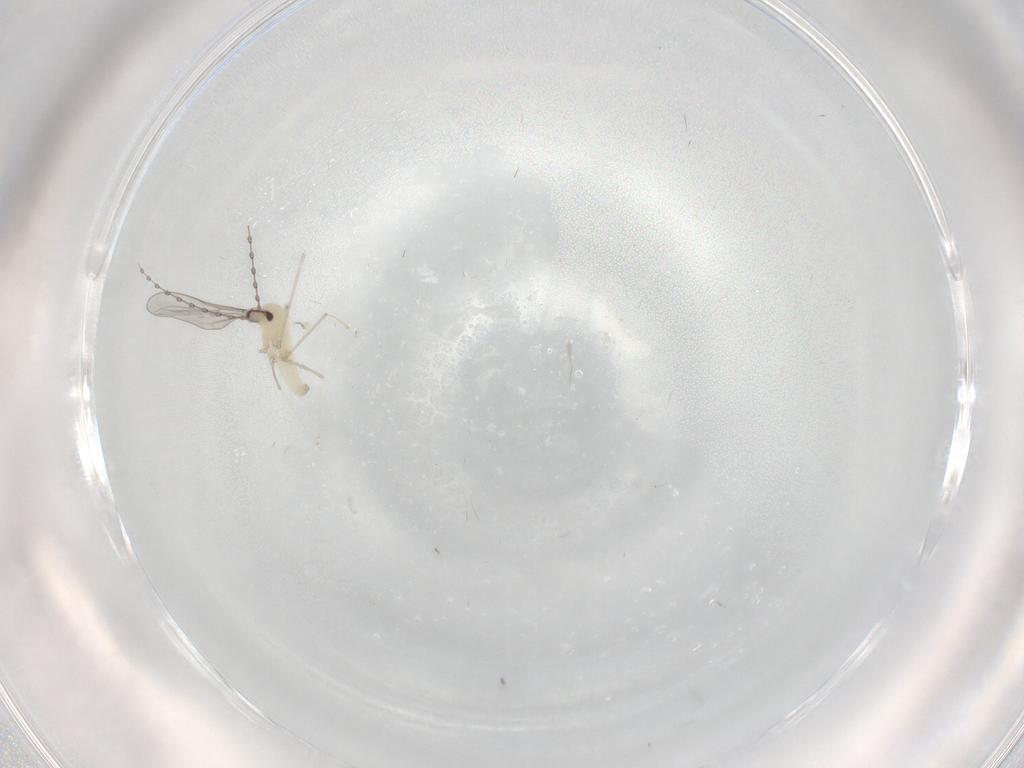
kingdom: Animalia
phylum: Arthropoda
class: Insecta
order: Diptera
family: Cecidomyiidae
